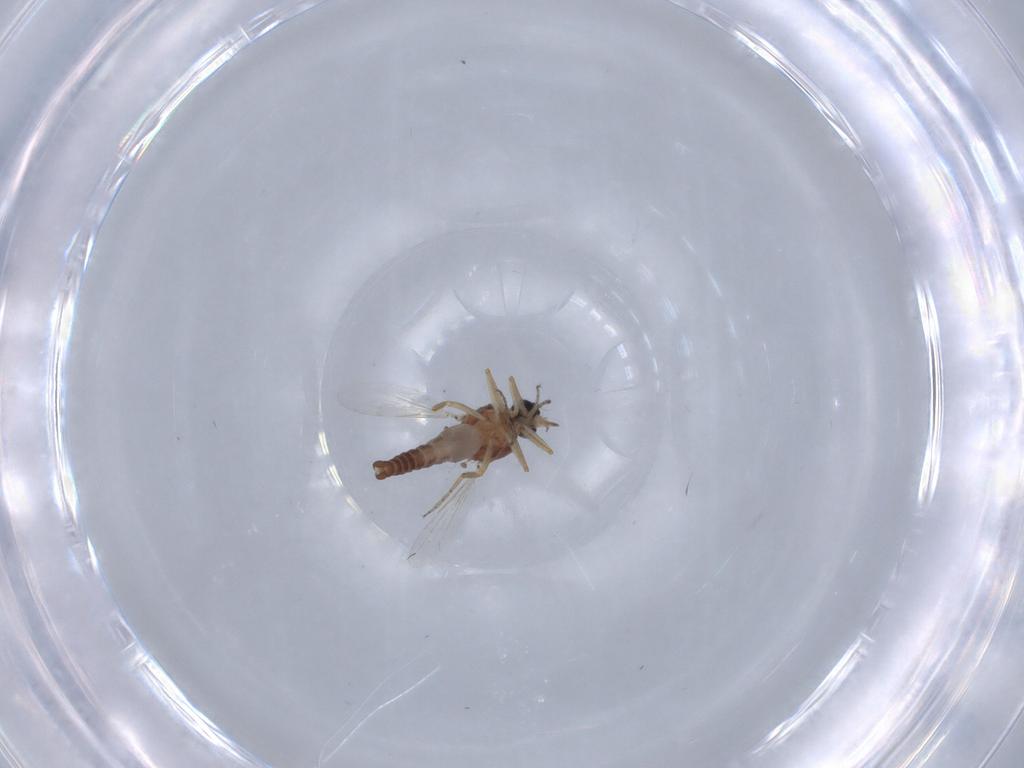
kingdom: Animalia
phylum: Arthropoda
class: Insecta
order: Diptera
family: Ceratopogonidae
